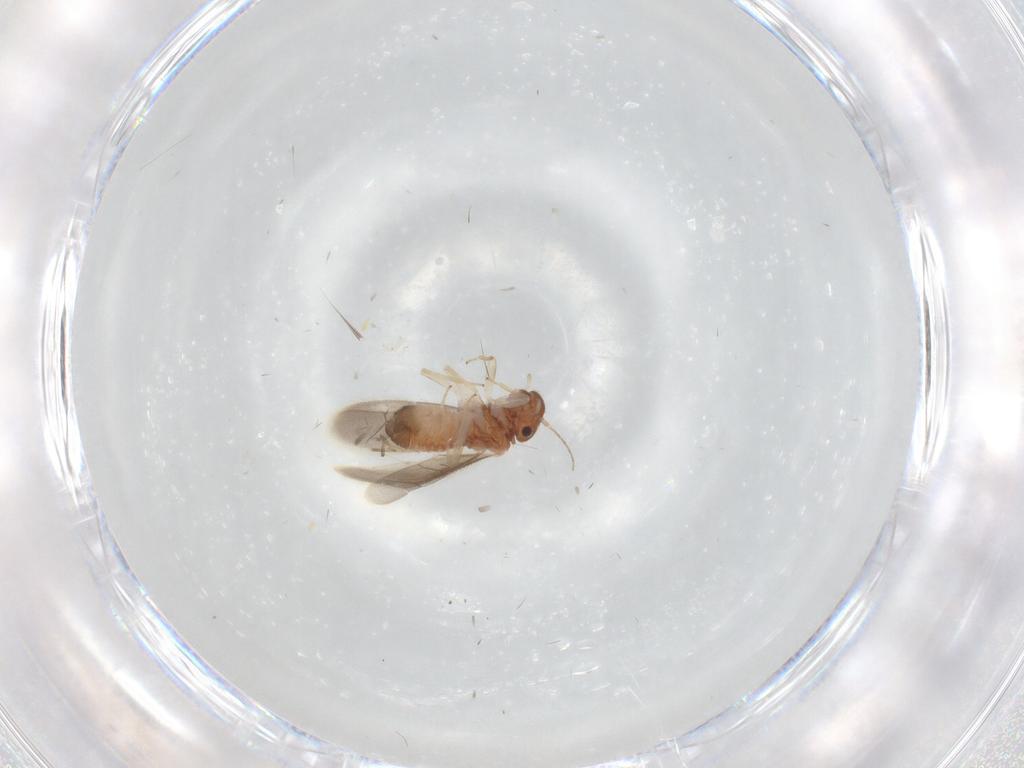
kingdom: Animalia
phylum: Arthropoda
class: Insecta
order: Psocodea
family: Archipsocidae
